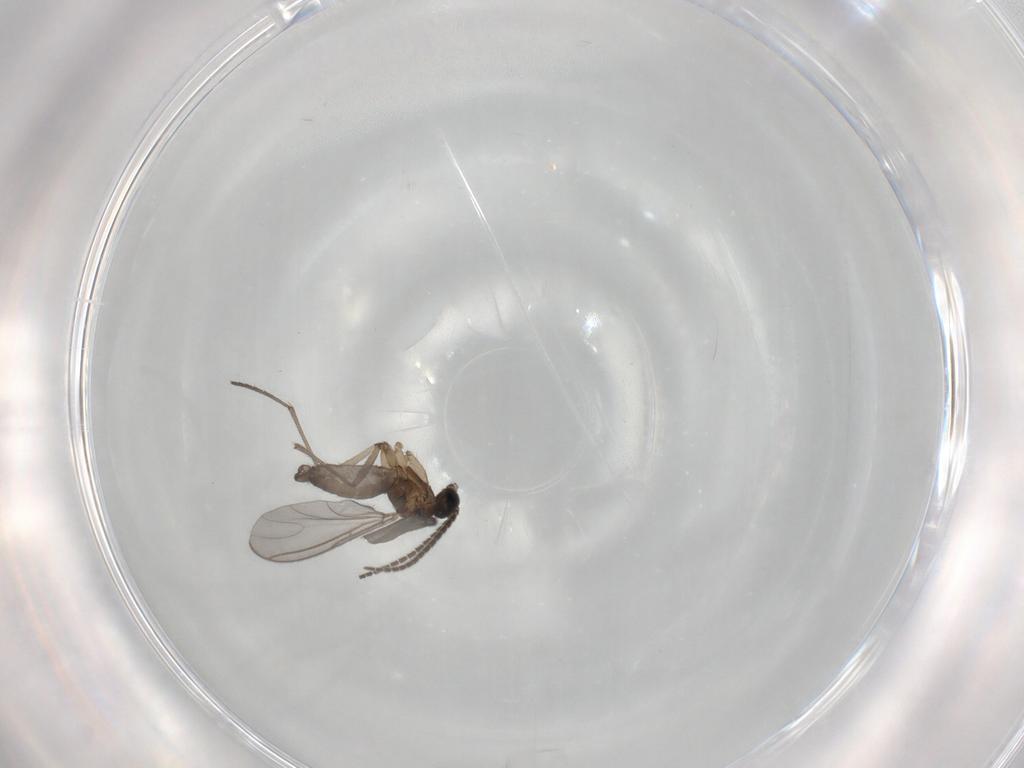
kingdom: Animalia
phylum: Arthropoda
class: Insecta
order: Diptera
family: Sciaridae
